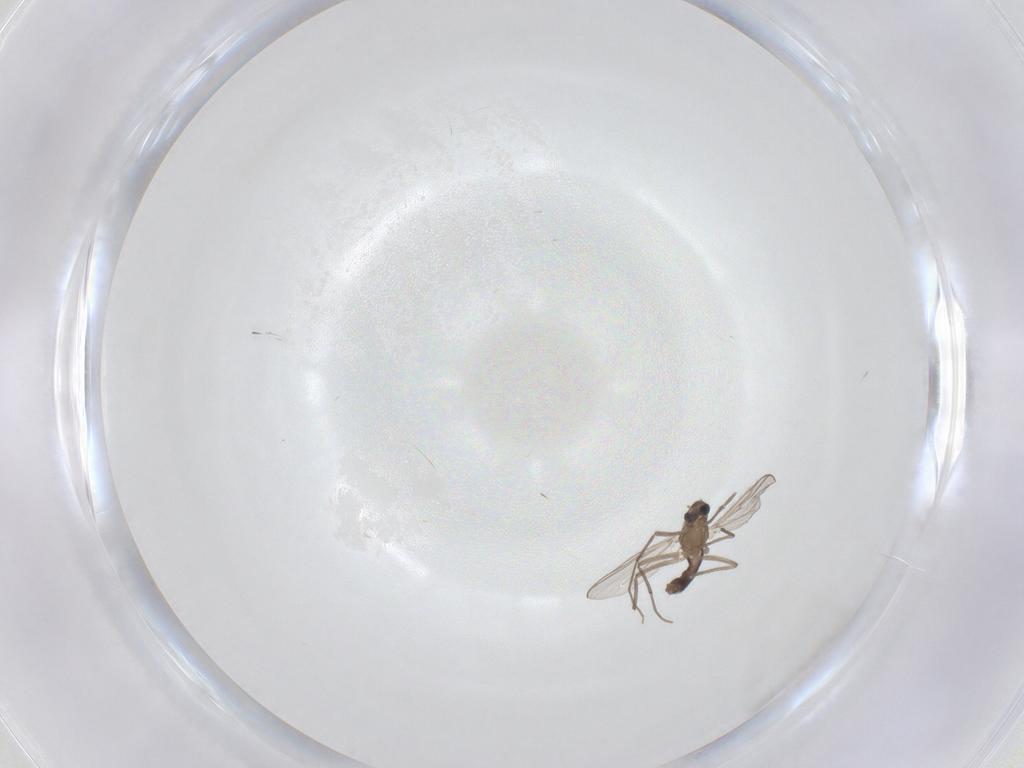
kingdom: Animalia
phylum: Arthropoda
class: Insecta
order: Diptera
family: Chironomidae
